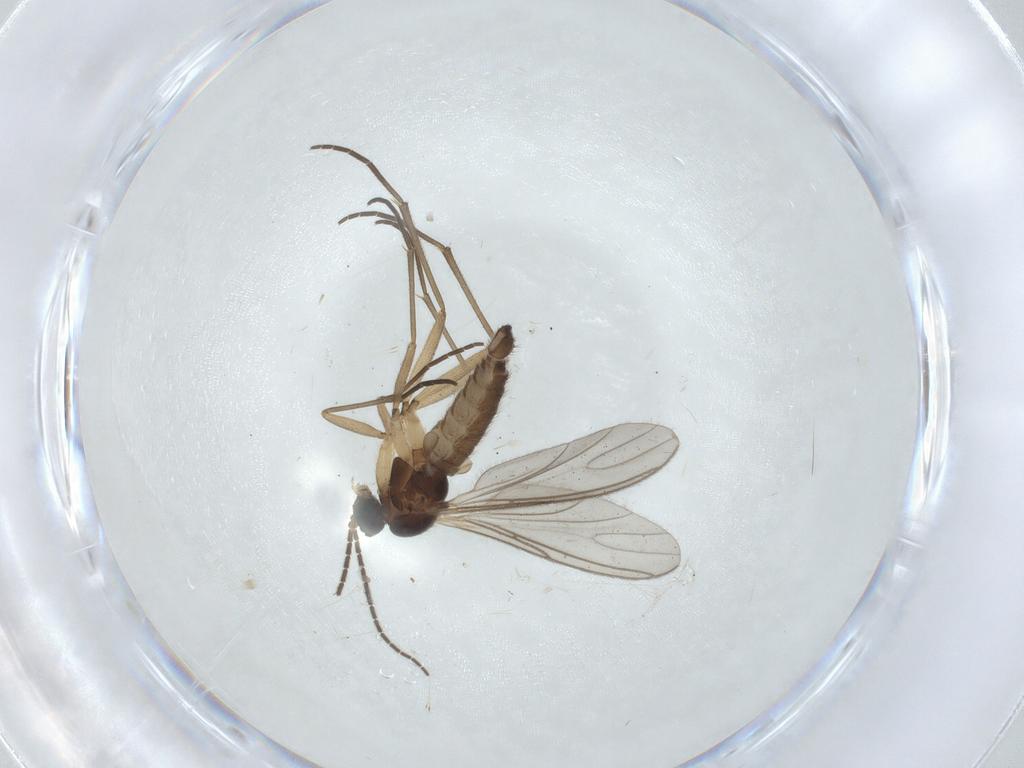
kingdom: Animalia
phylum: Arthropoda
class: Insecta
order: Diptera
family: Sciaridae
